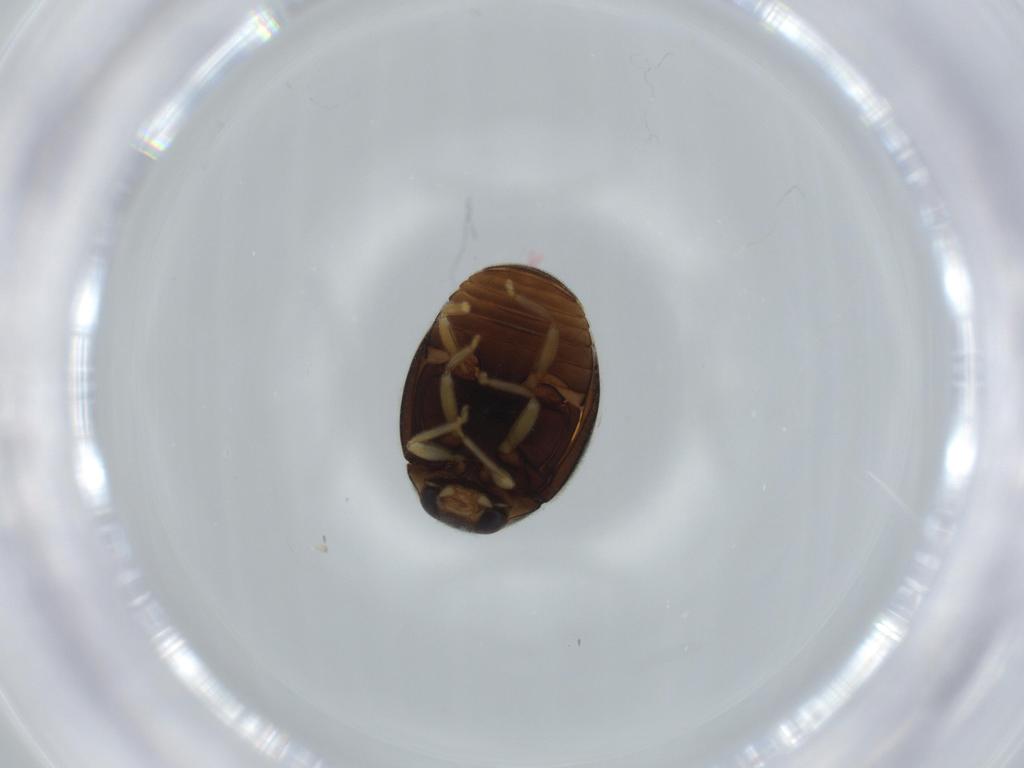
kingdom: Animalia
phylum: Arthropoda
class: Insecta
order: Coleoptera
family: Coccinellidae
